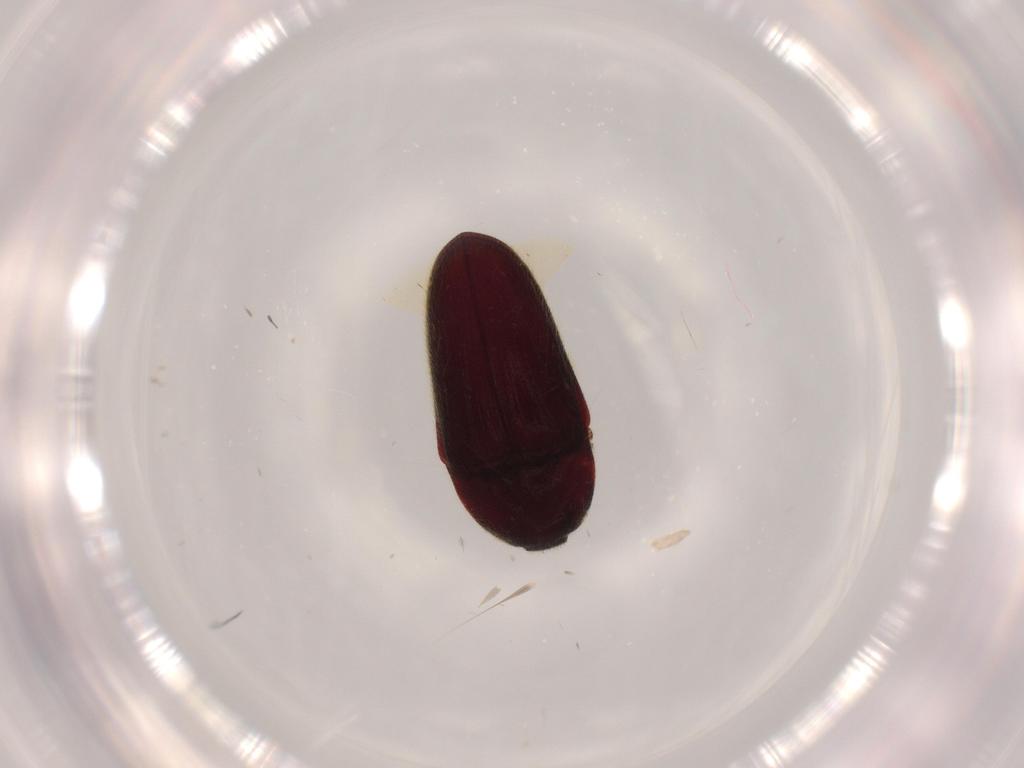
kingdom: Animalia
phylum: Arthropoda
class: Insecta
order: Coleoptera
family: Throscidae
